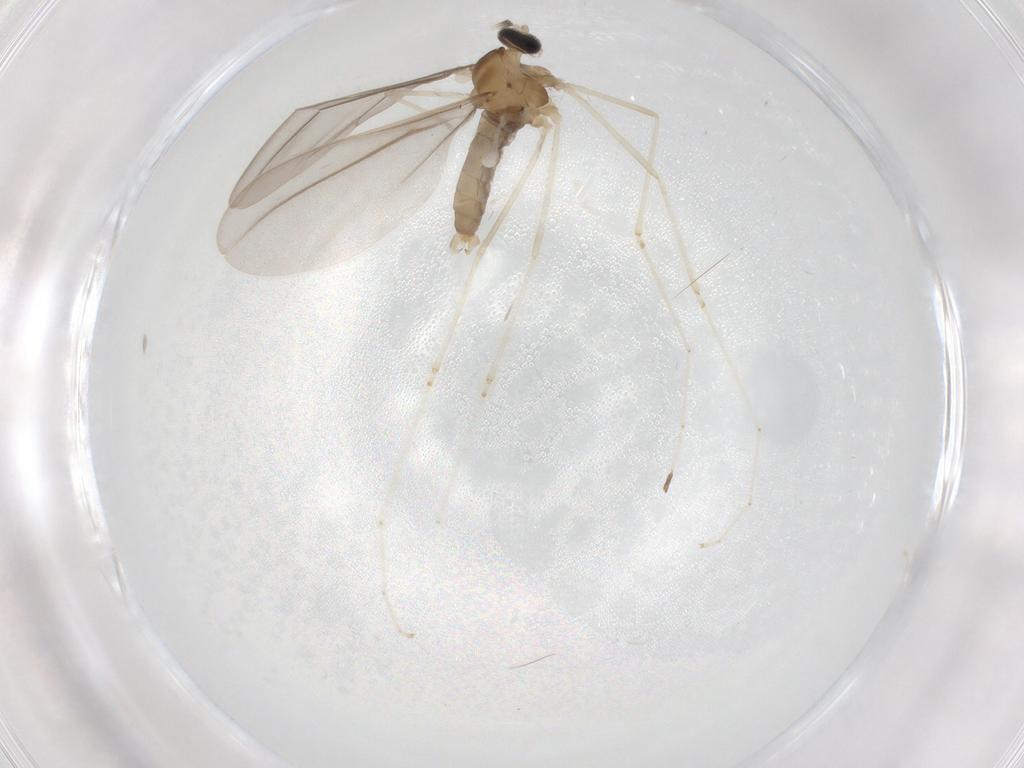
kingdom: Animalia
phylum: Arthropoda
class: Insecta
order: Diptera
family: Cecidomyiidae
